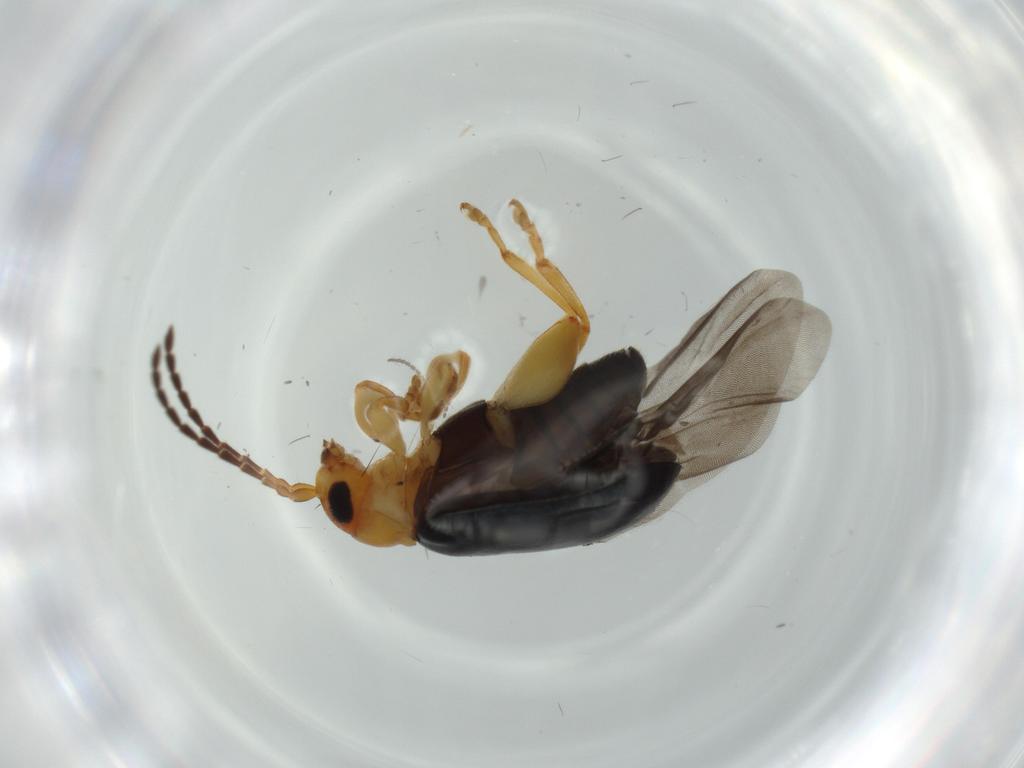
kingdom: Animalia
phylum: Arthropoda
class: Insecta
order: Coleoptera
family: Chrysomelidae
